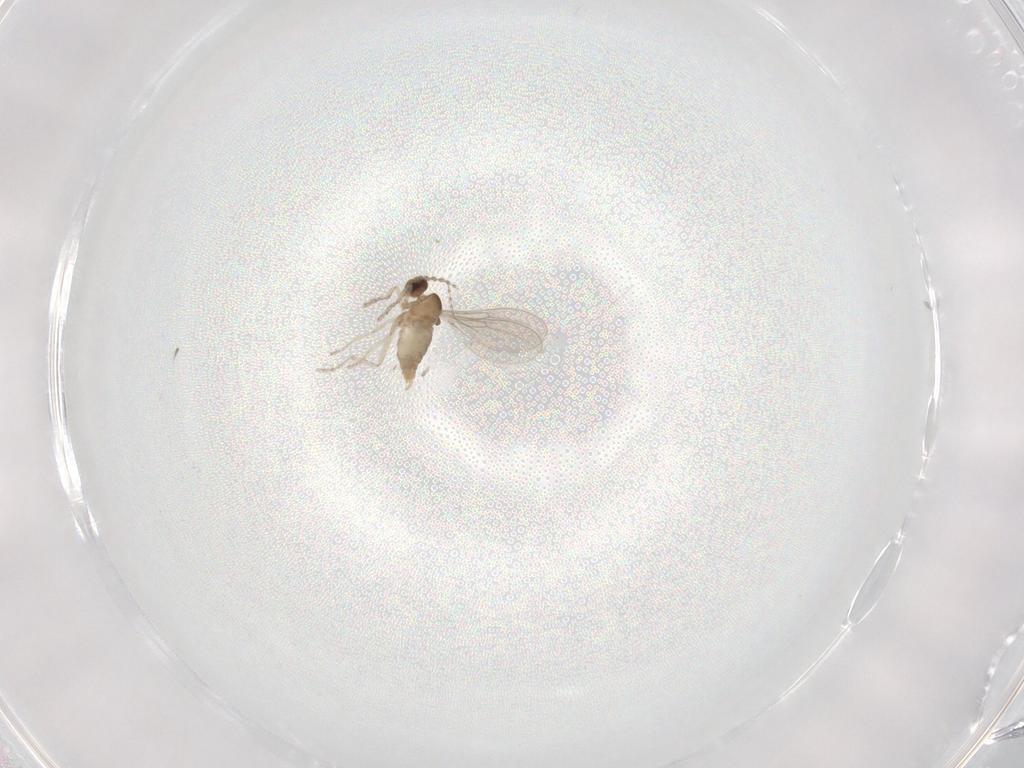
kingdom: Animalia
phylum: Arthropoda
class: Insecta
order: Diptera
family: Cecidomyiidae
